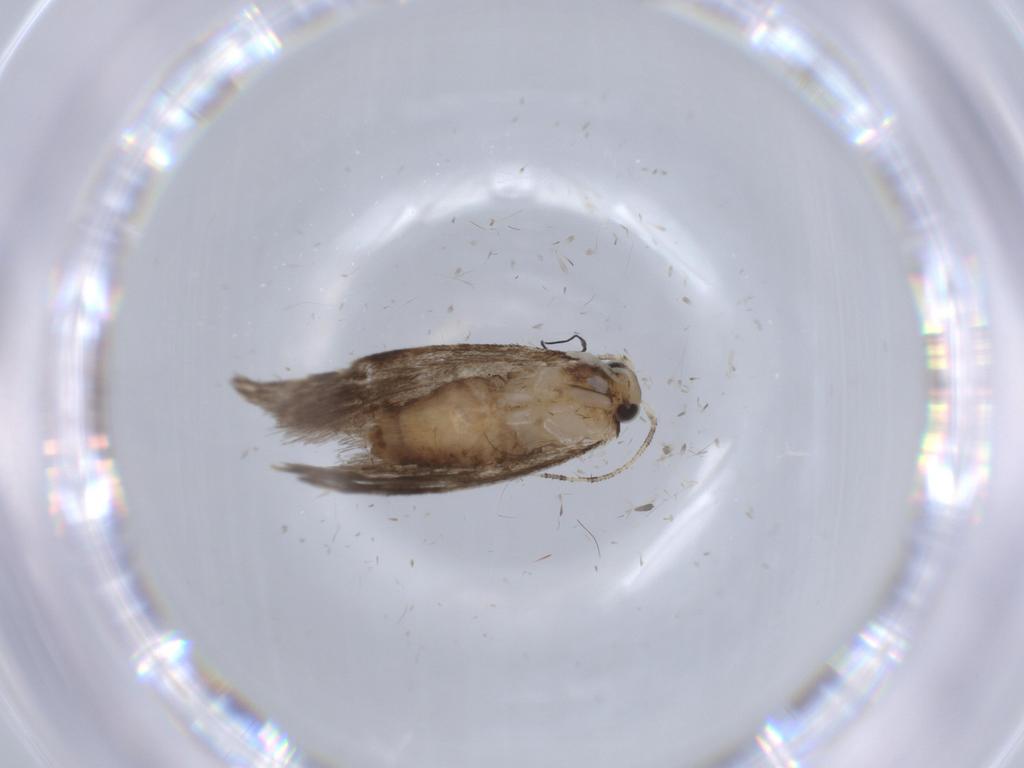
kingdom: Animalia
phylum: Arthropoda
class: Insecta
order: Lepidoptera
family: Tineidae
